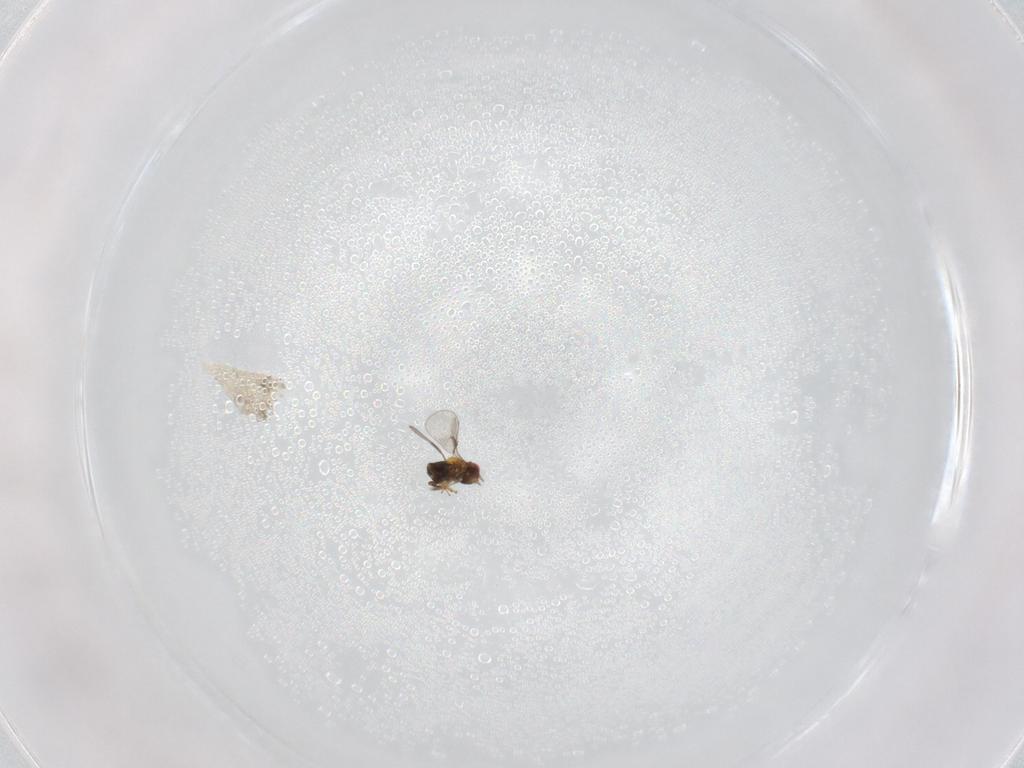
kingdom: Animalia
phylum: Arthropoda
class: Insecta
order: Hymenoptera
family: Trichogrammatidae
